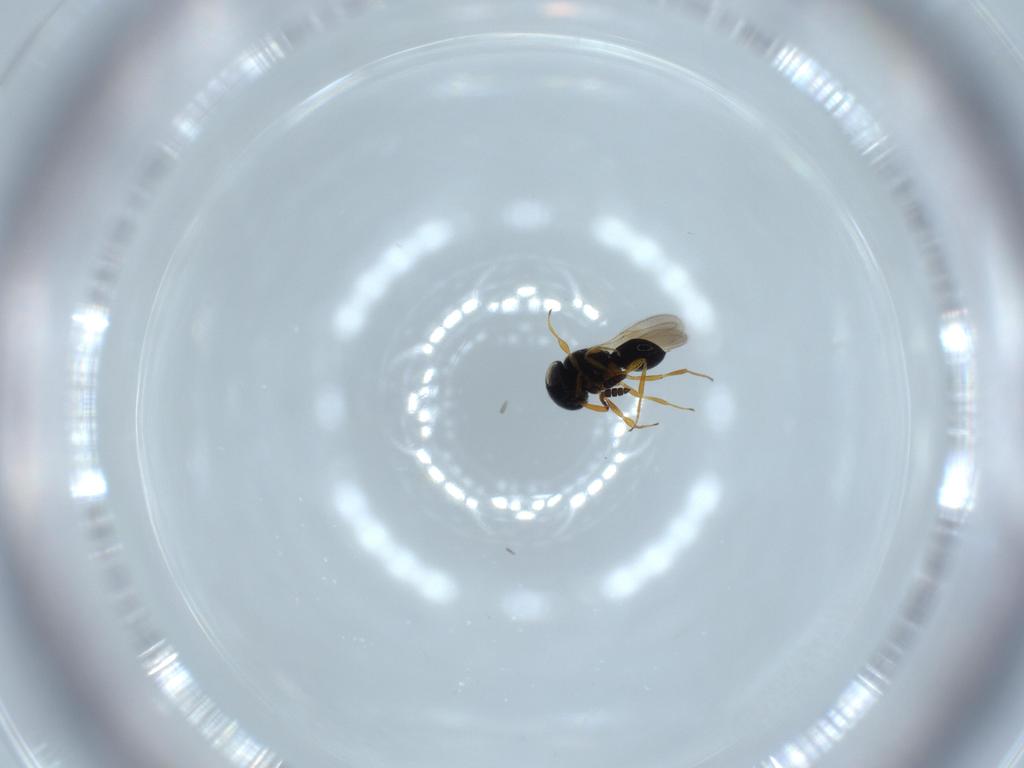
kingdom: Animalia
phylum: Arthropoda
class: Insecta
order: Hymenoptera
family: Scelionidae
